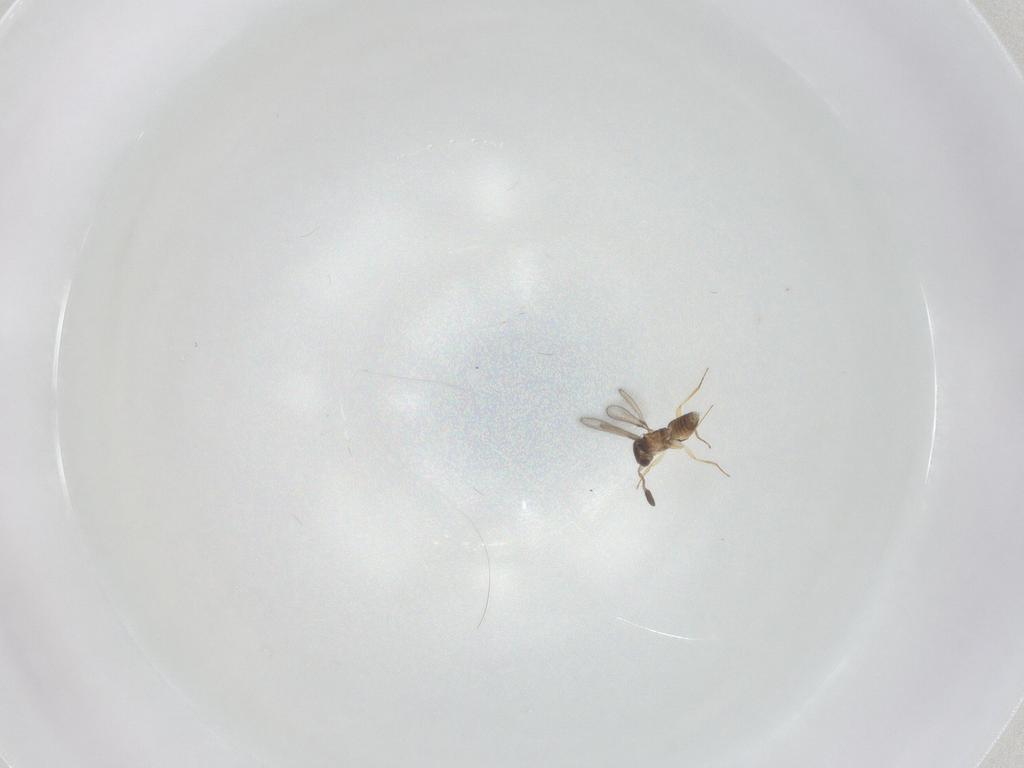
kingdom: Animalia
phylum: Arthropoda
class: Insecta
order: Hymenoptera
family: Mymaridae
